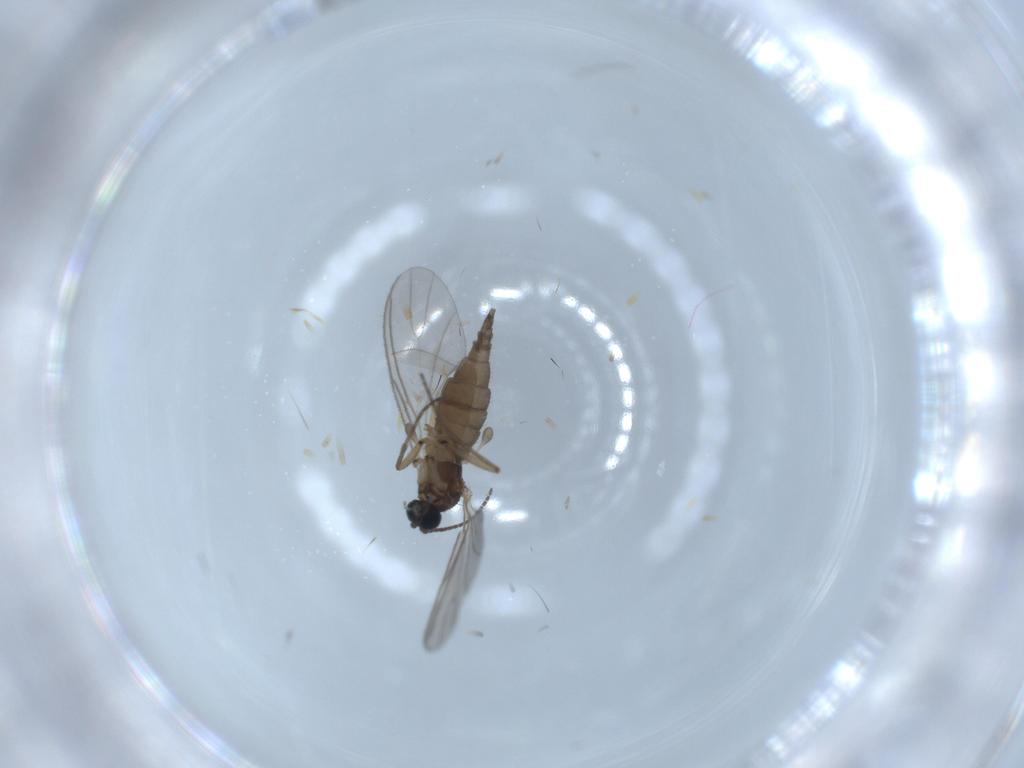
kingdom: Animalia
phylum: Arthropoda
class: Insecta
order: Diptera
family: Sciaridae
